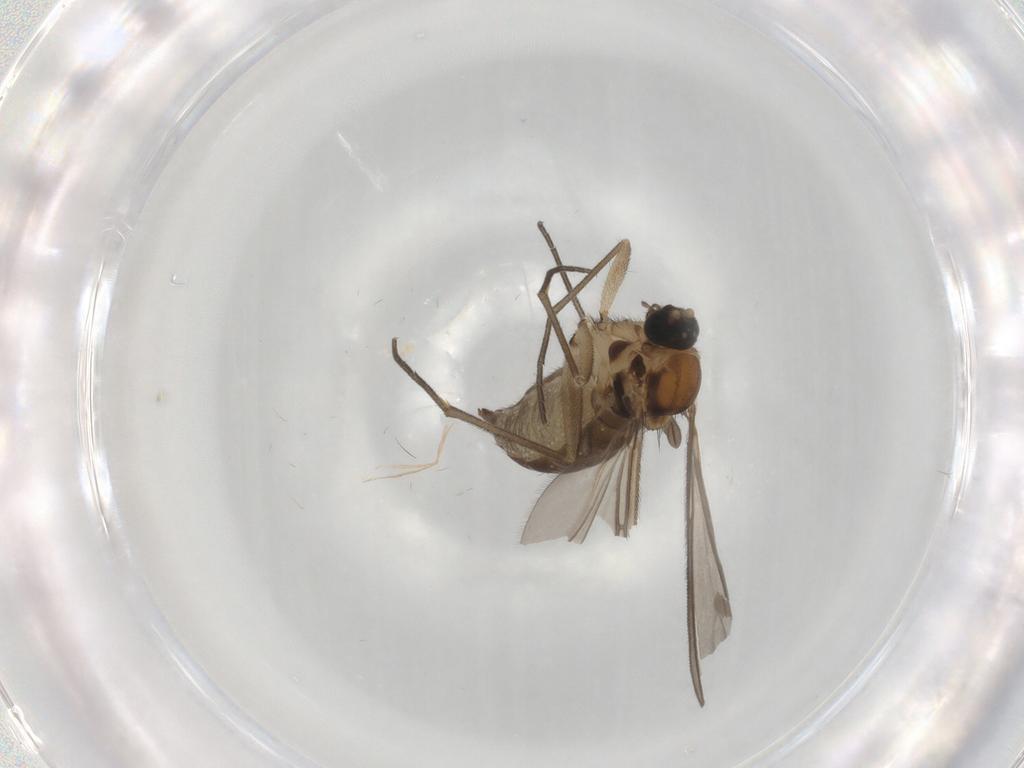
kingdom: Animalia
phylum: Arthropoda
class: Insecta
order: Diptera
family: Sciaridae
